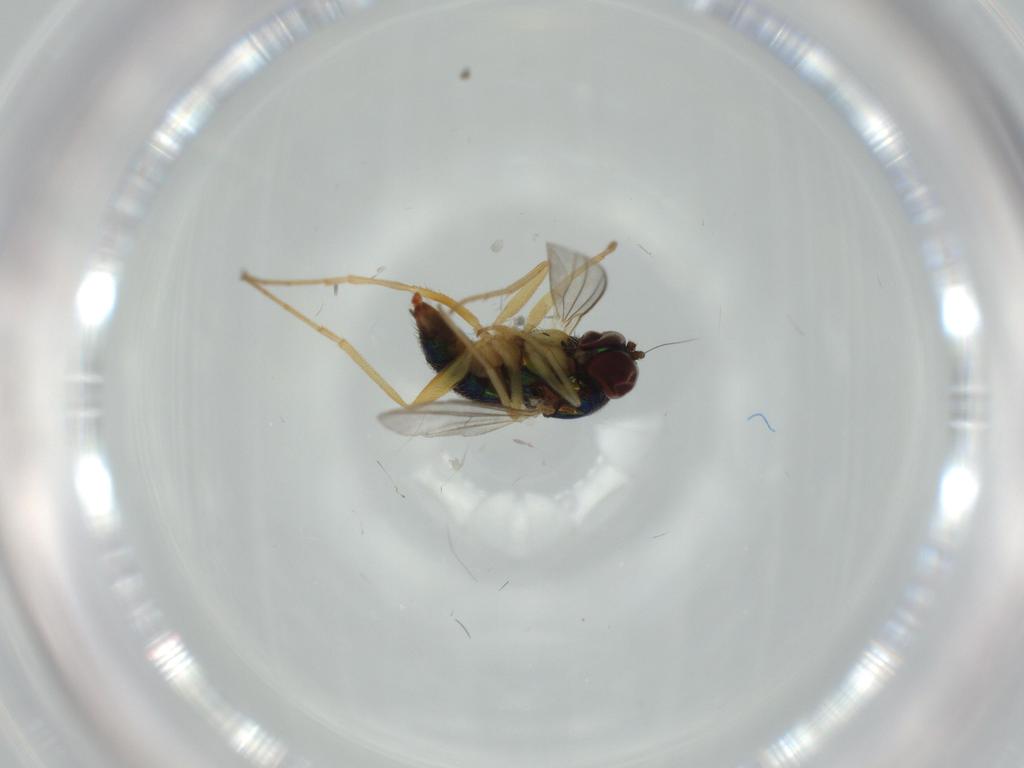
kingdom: Animalia
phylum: Arthropoda
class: Insecta
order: Diptera
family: Dolichopodidae
